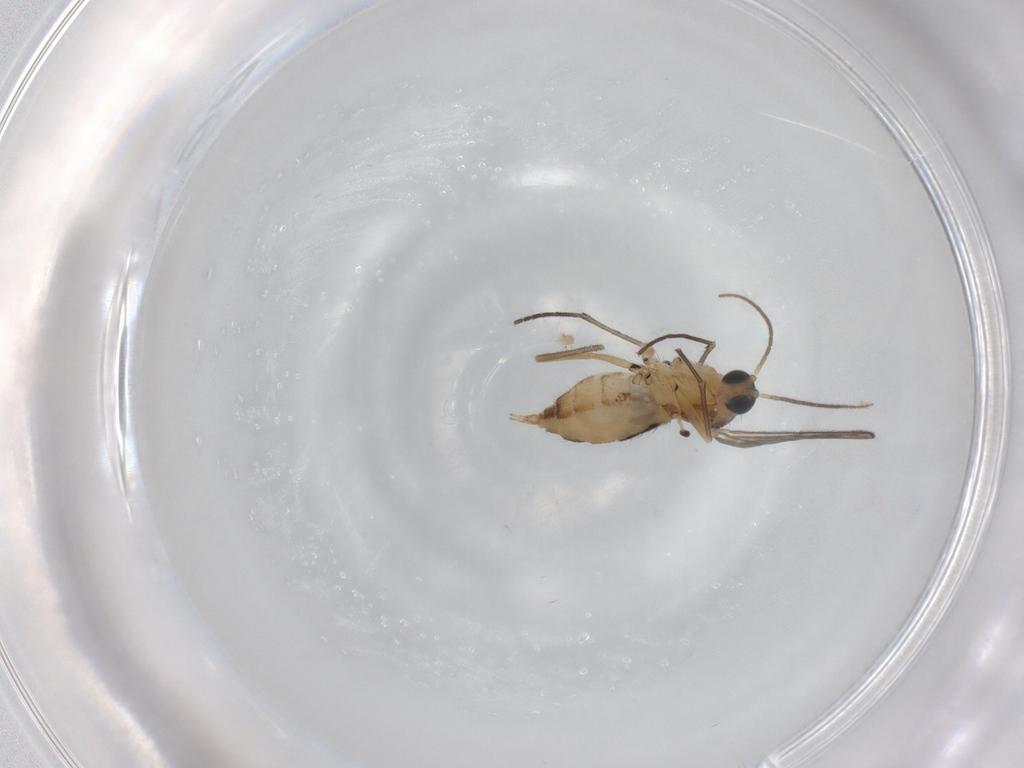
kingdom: Animalia
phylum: Arthropoda
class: Insecta
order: Diptera
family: Sciaridae
